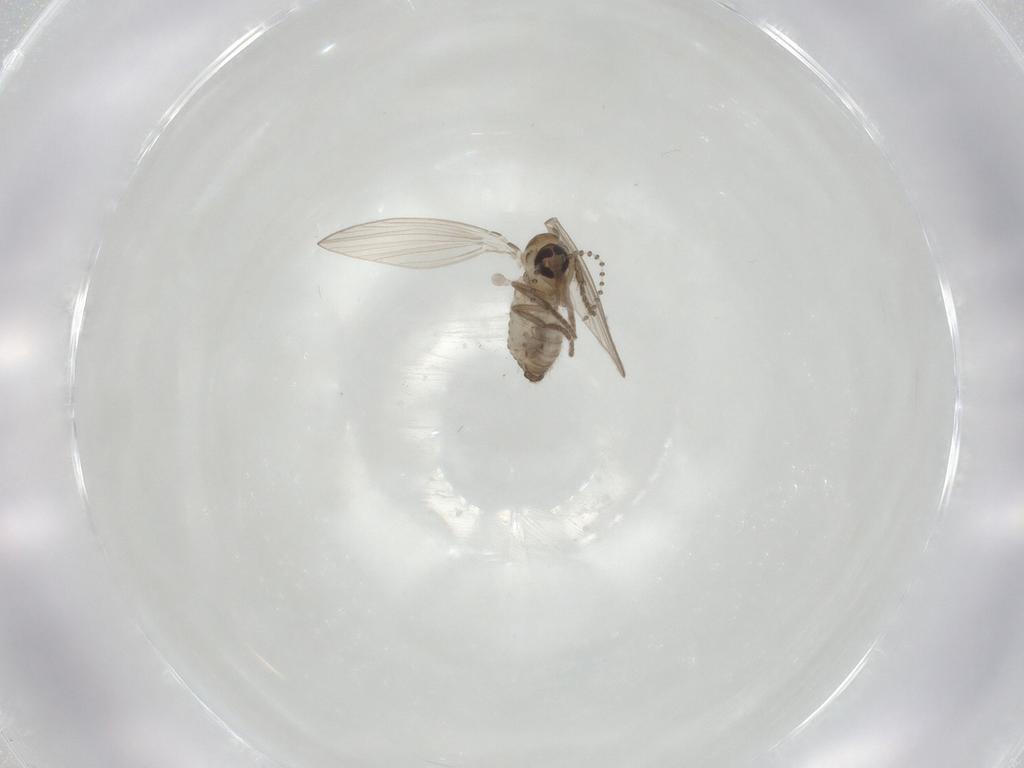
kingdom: Animalia
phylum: Arthropoda
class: Insecta
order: Diptera
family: Psychodidae
